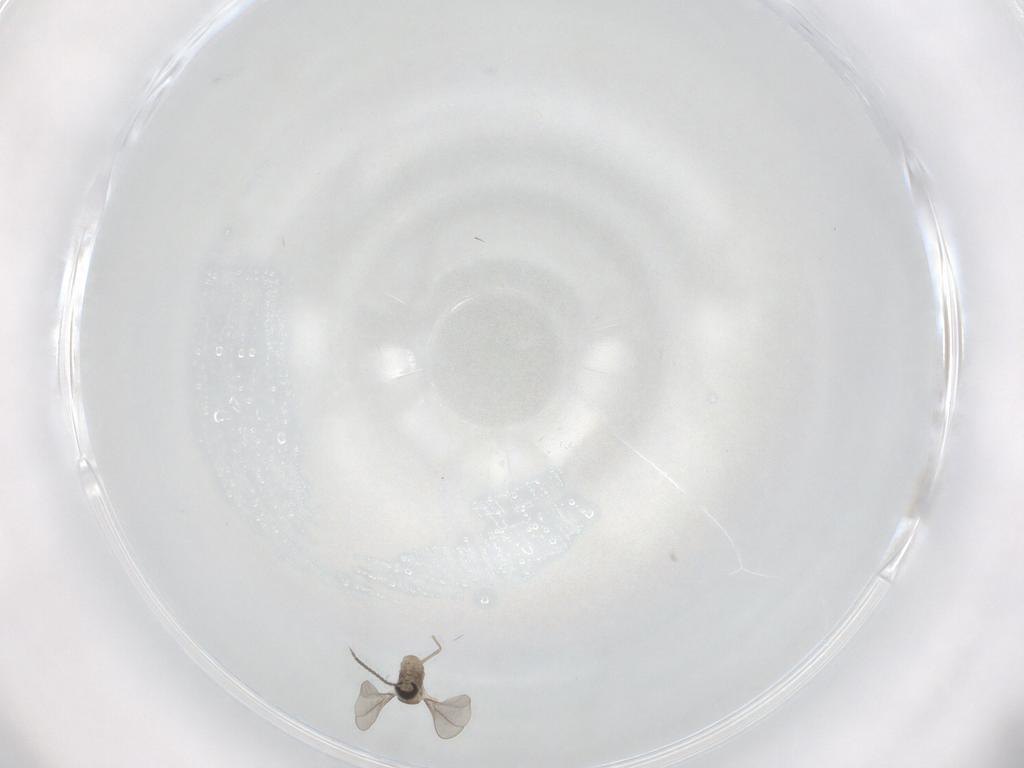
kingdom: Animalia
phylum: Arthropoda
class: Insecta
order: Diptera
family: Cecidomyiidae
